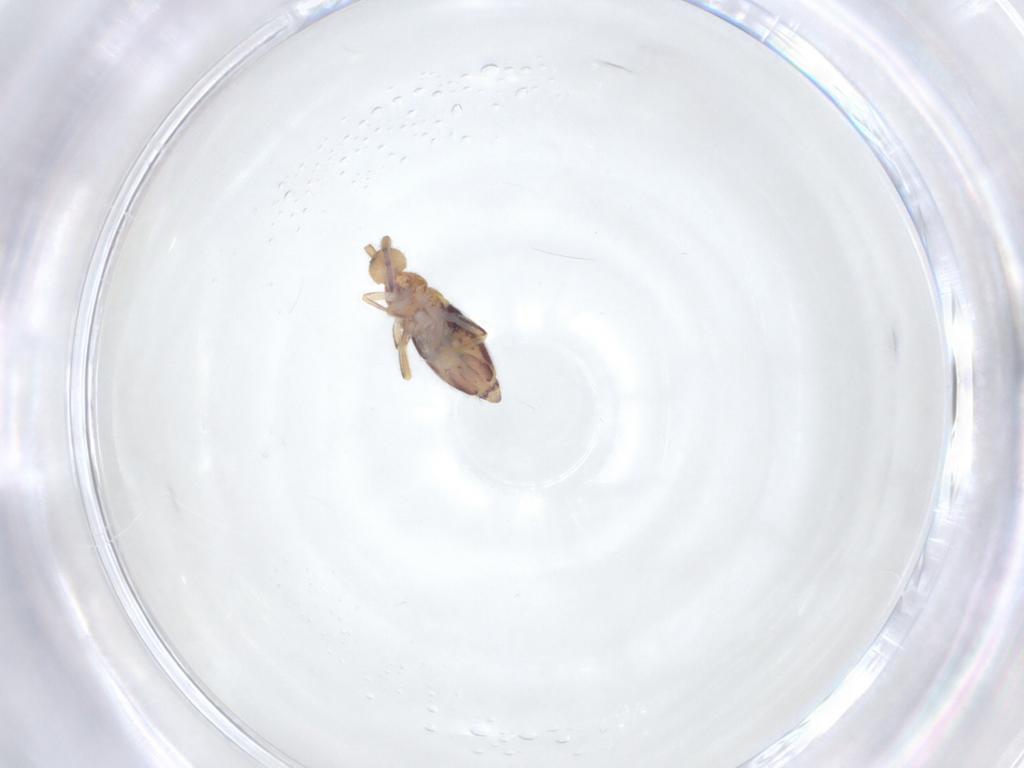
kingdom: Animalia
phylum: Arthropoda
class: Collembola
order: Entomobryomorpha
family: Entomobryidae
